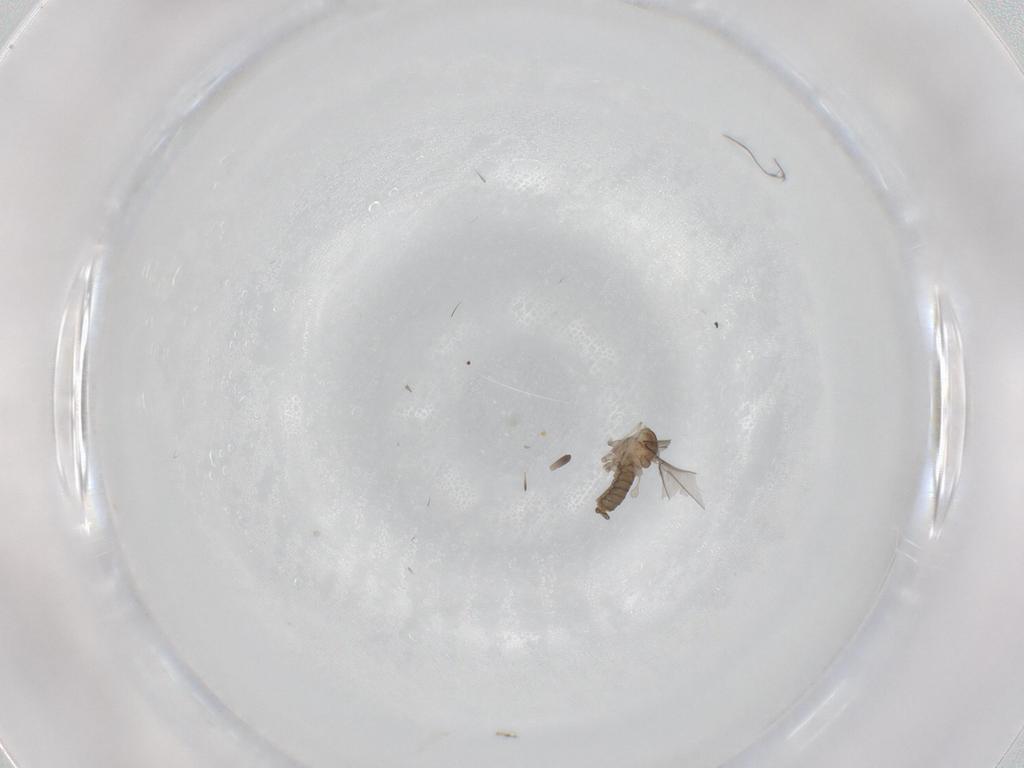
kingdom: Animalia
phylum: Arthropoda
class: Insecta
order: Diptera
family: Cecidomyiidae
